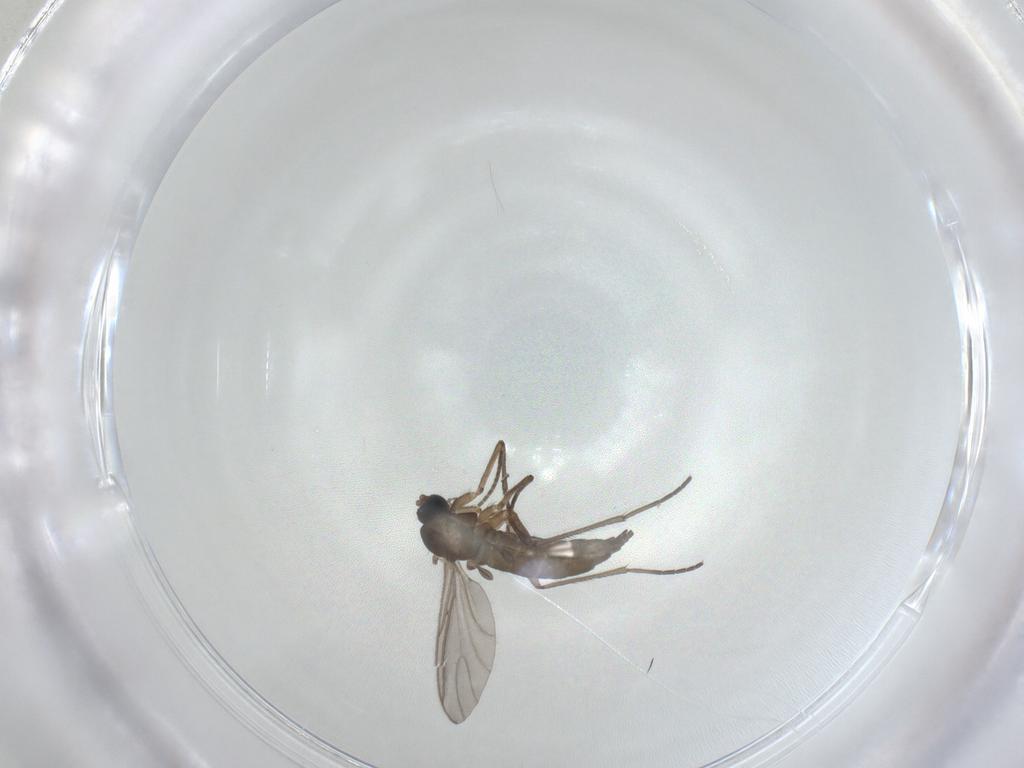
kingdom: Animalia
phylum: Arthropoda
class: Insecta
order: Diptera
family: Sciaridae
